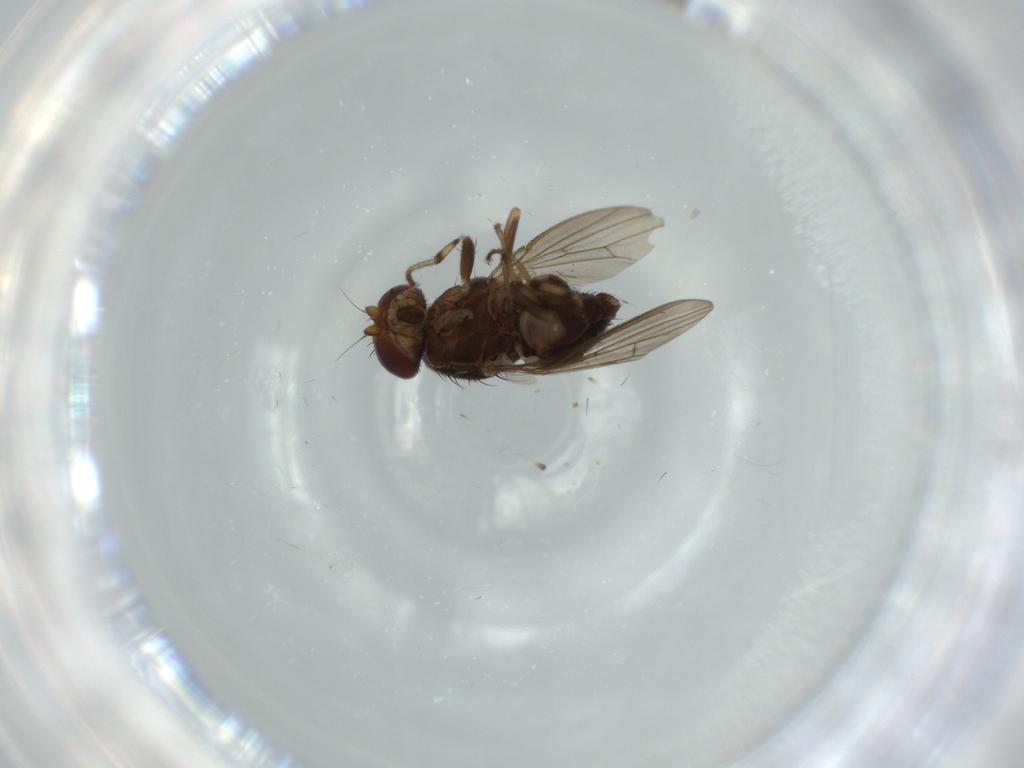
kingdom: Animalia
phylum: Arthropoda
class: Insecta
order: Diptera
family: Heleomyzidae
